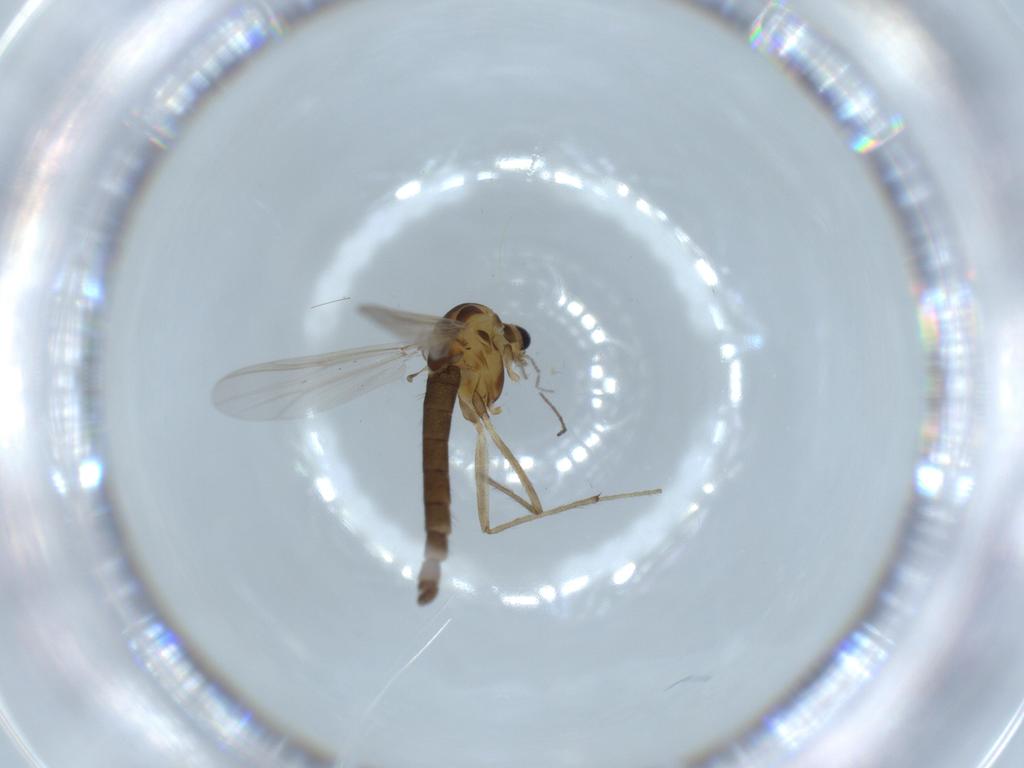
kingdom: Animalia
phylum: Arthropoda
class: Insecta
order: Diptera
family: Chironomidae
